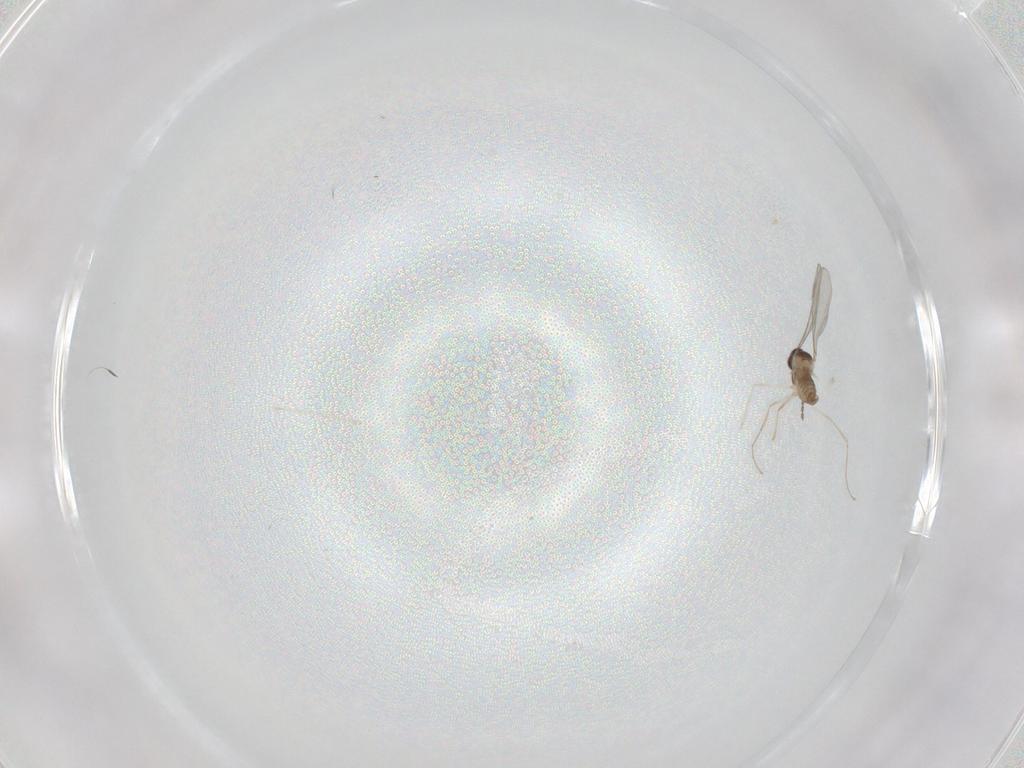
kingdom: Animalia
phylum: Arthropoda
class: Insecta
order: Diptera
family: Cecidomyiidae
